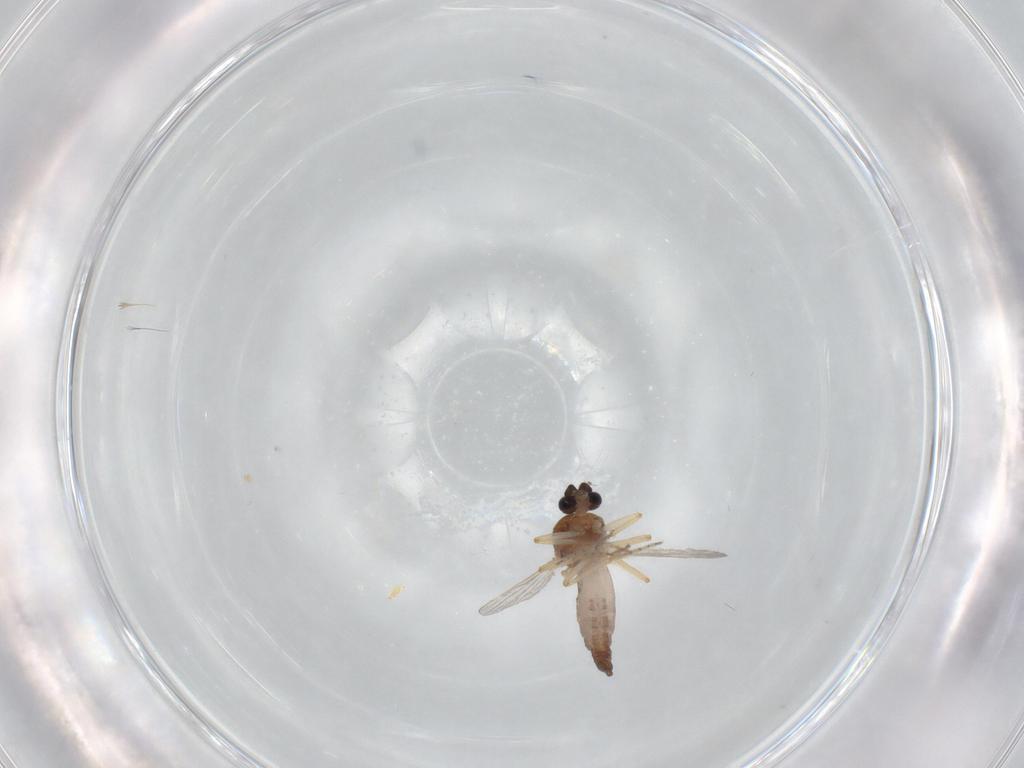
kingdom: Animalia
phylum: Arthropoda
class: Insecta
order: Diptera
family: Ceratopogonidae
